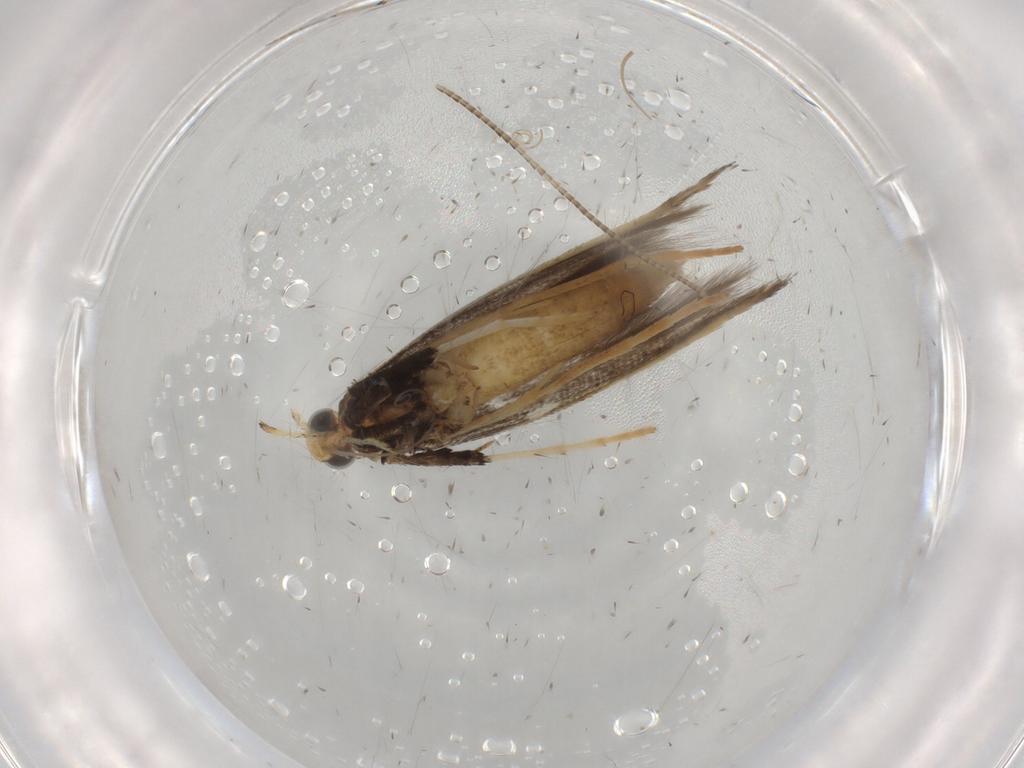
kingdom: Animalia
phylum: Arthropoda
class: Insecta
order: Lepidoptera
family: Gracillariidae
